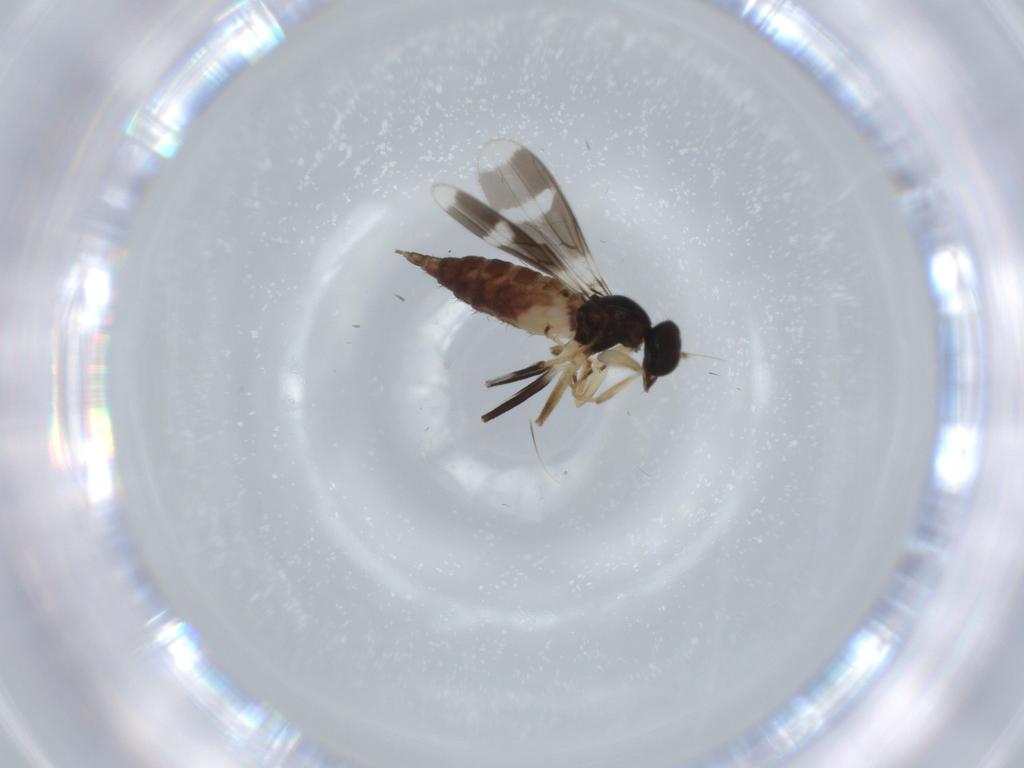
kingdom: Animalia
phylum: Arthropoda
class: Insecta
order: Diptera
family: Hybotidae
